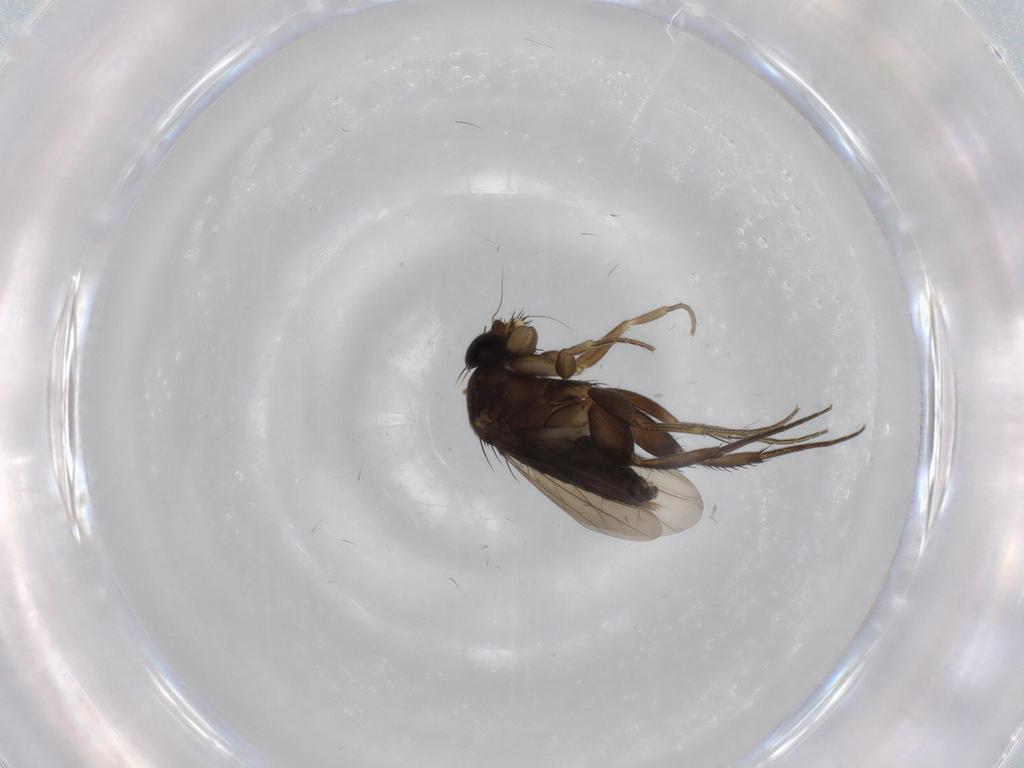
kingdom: Animalia
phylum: Arthropoda
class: Insecta
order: Diptera
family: Phoridae
